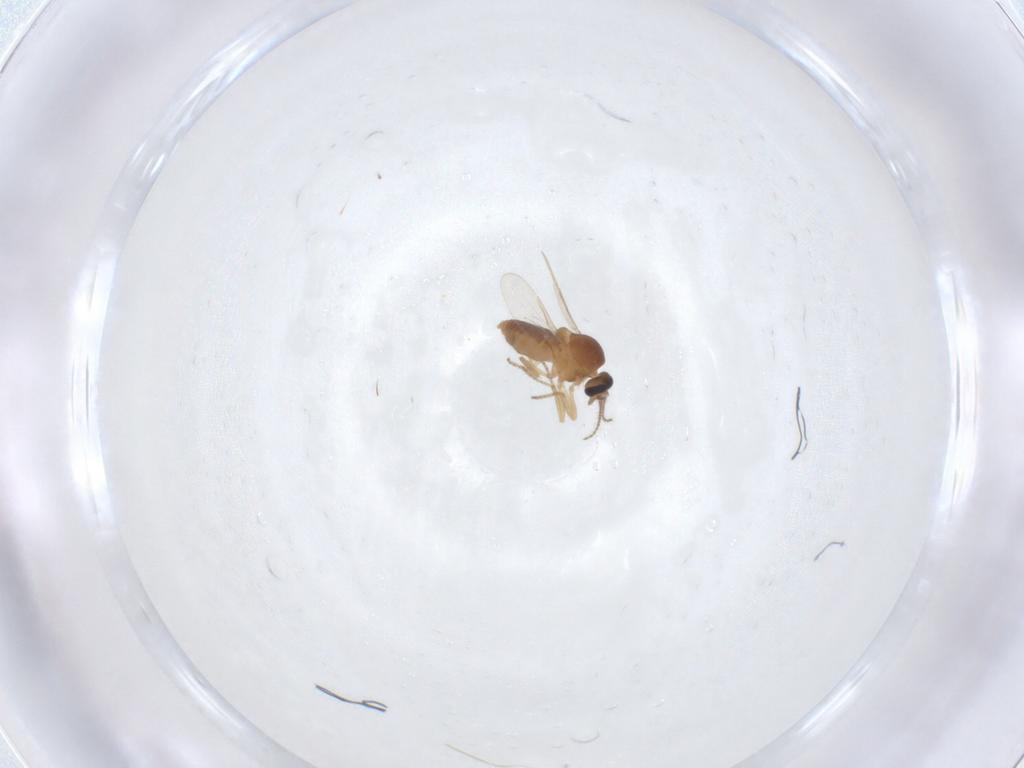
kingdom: Animalia
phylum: Arthropoda
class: Insecta
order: Diptera
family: Ceratopogonidae
